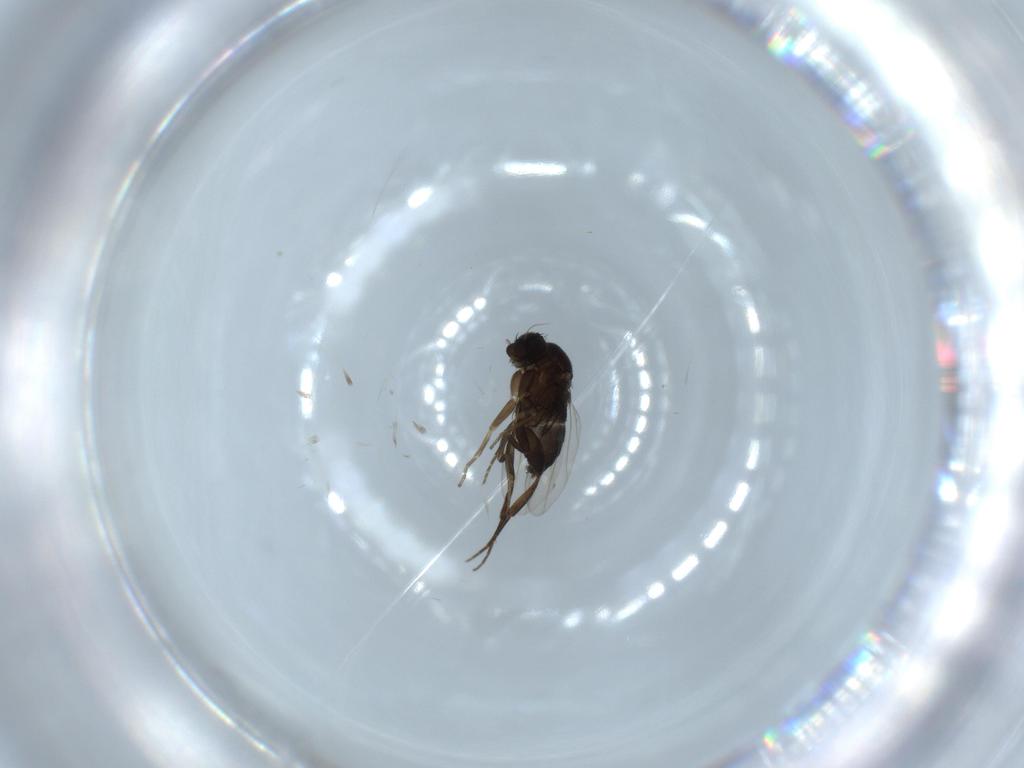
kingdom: Animalia
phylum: Arthropoda
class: Insecta
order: Diptera
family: Phoridae
